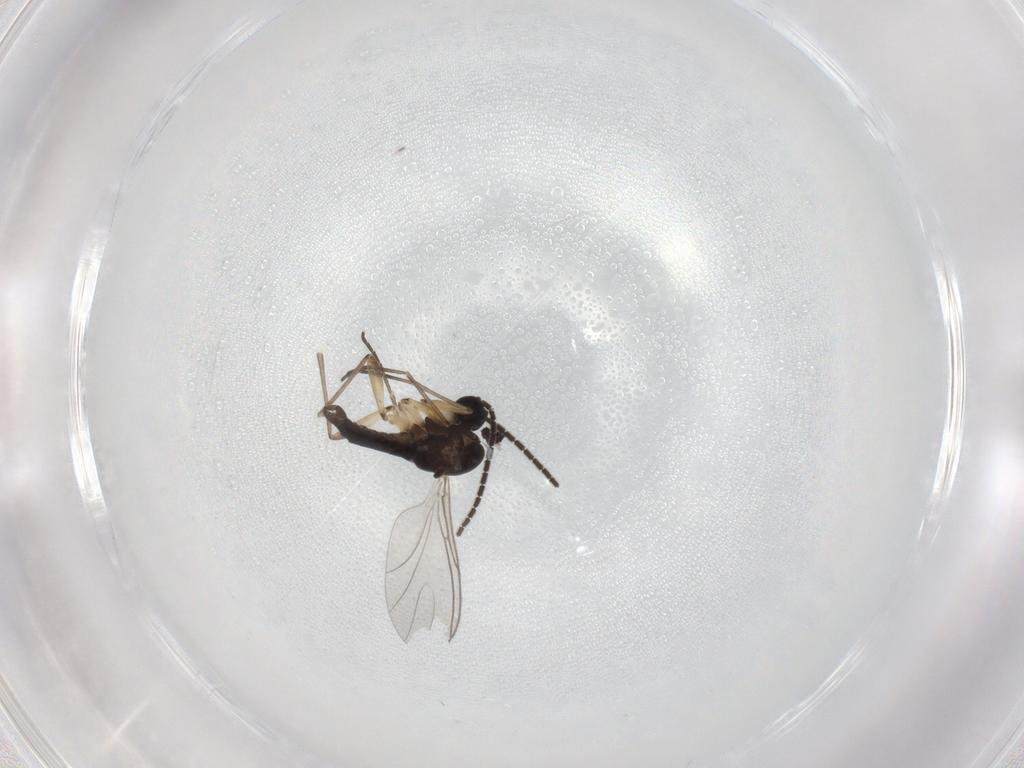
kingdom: Animalia
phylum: Arthropoda
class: Insecta
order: Diptera
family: Sciaridae
